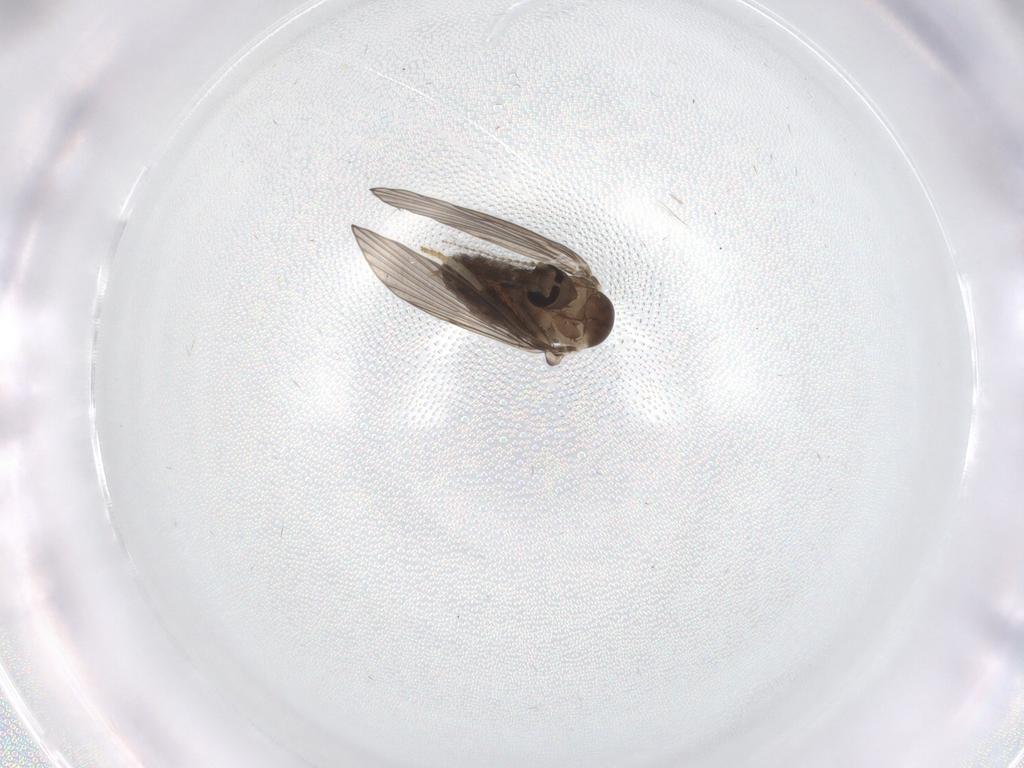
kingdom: Animalia
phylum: Arthropoda
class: Insecta
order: Diptera
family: Psychodidae
